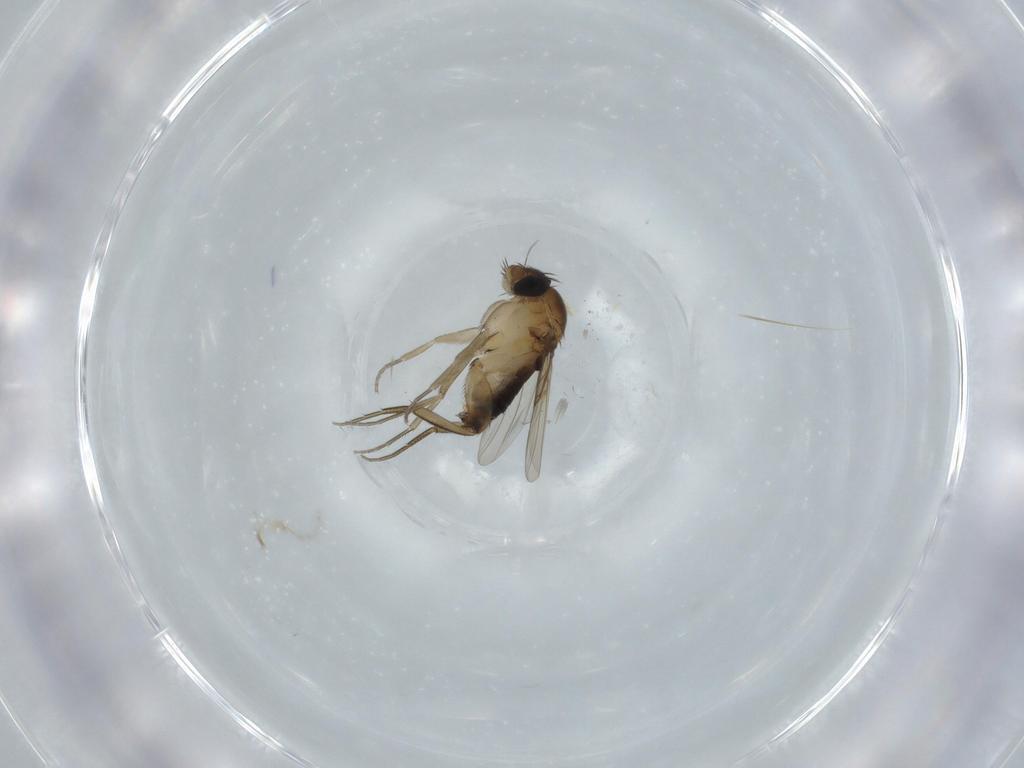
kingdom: Animalia
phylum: Arthropoda
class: Insecta
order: Diptera
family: Phoridae
